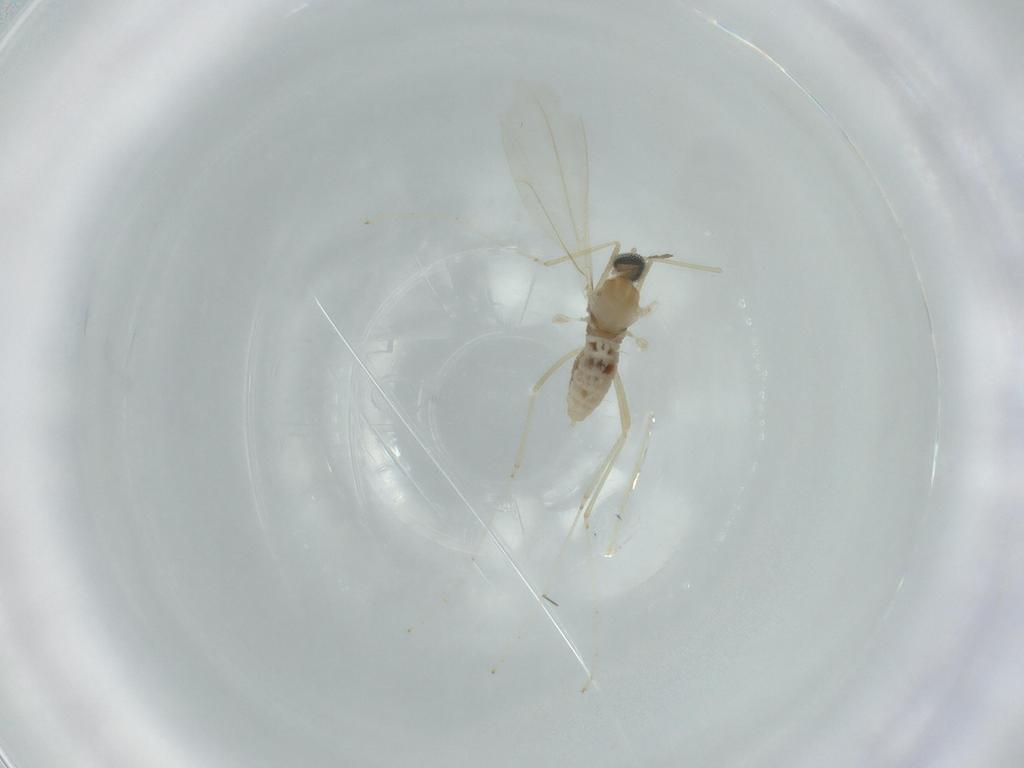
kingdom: Animalia
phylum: Arthropoda
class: Insecta
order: Diptera
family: Cecidomyiidae
